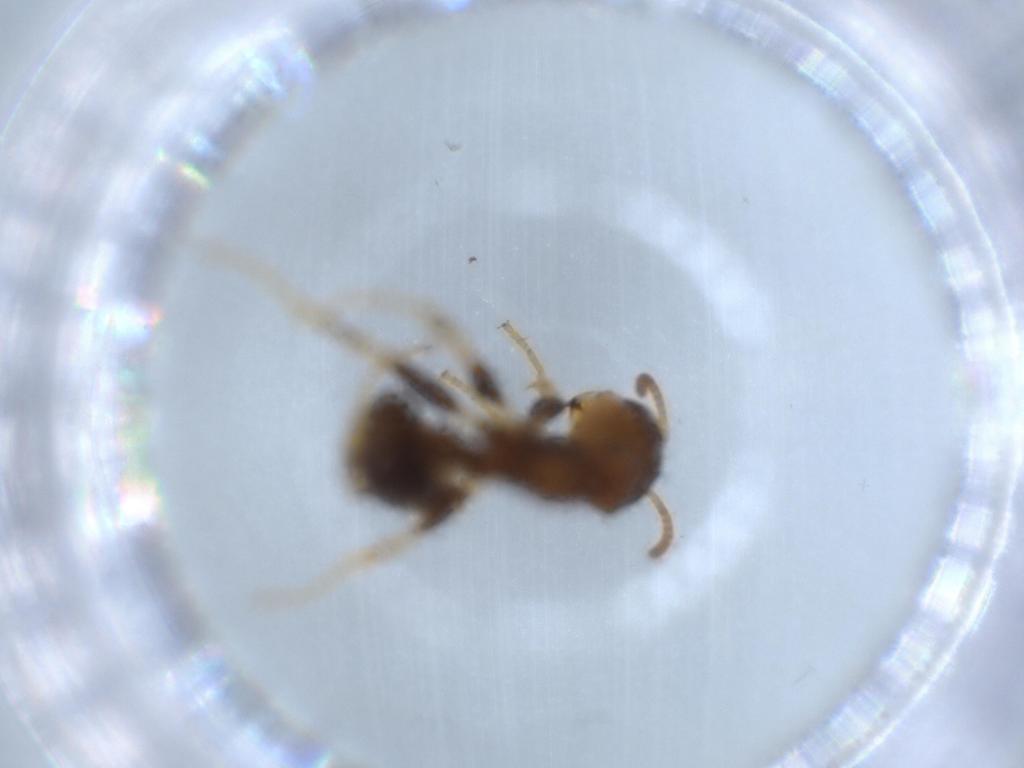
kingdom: Animalia
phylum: Arthropoda
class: Insecta
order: Hymenoptera
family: Formicidae
